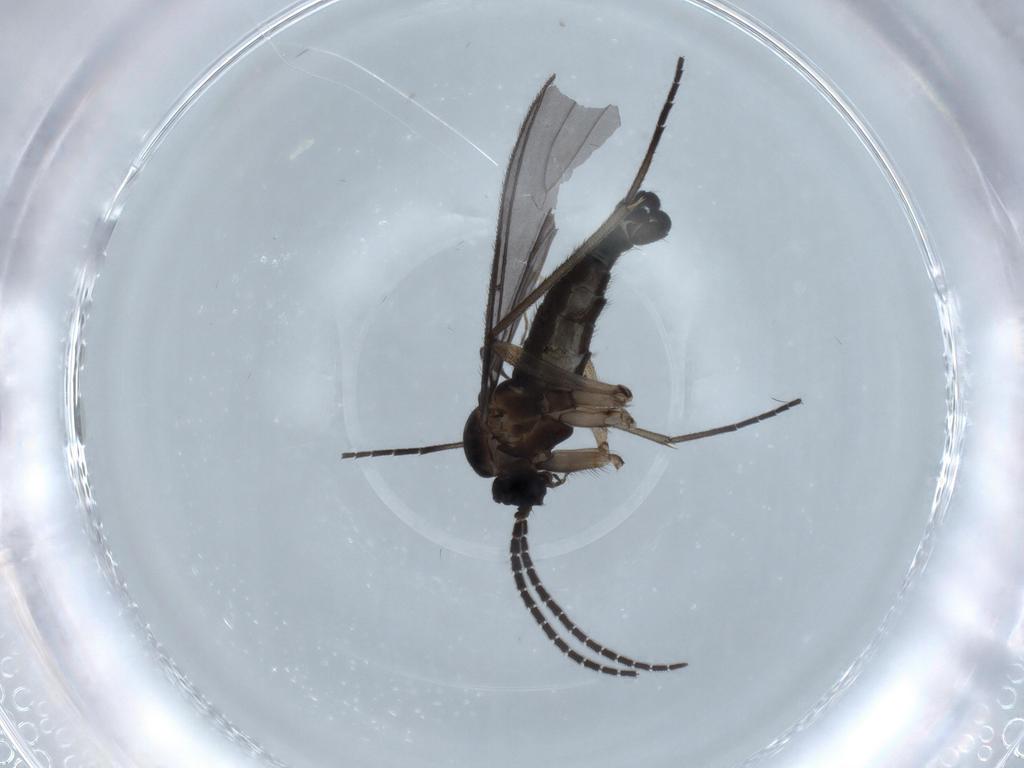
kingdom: Animalia
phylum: Arthropoda
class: Insecta
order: Diptera
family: Sciaridae
